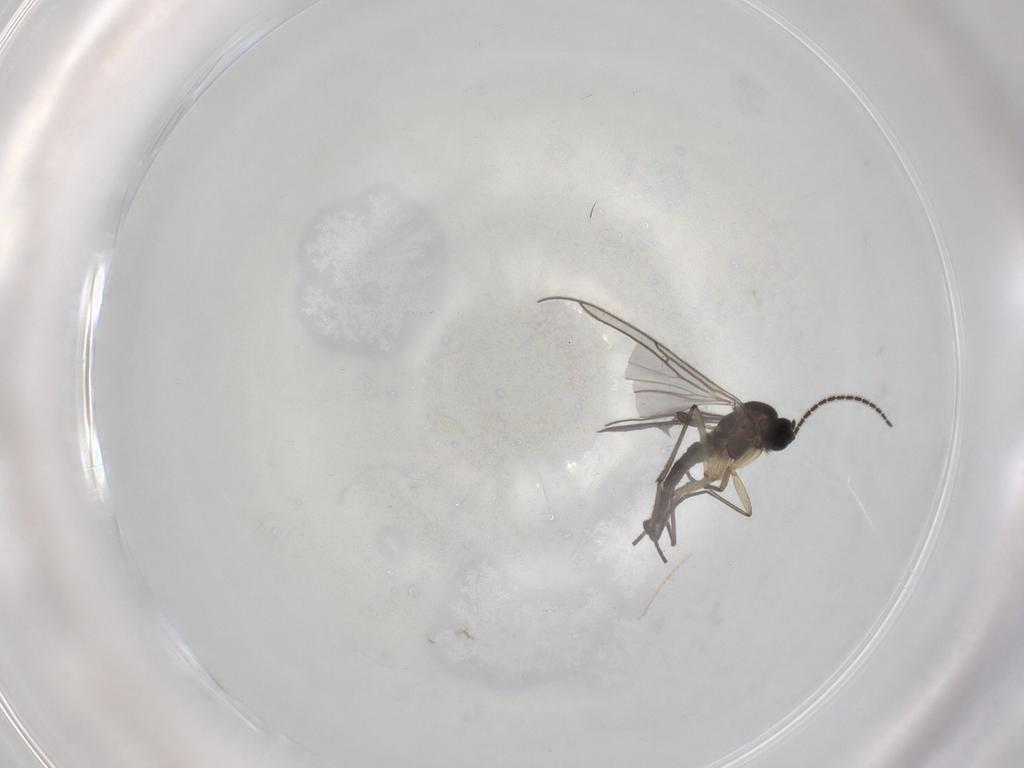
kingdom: Animalia
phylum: Arthropoda
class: Insecta
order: Diptera
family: Sciaridae
